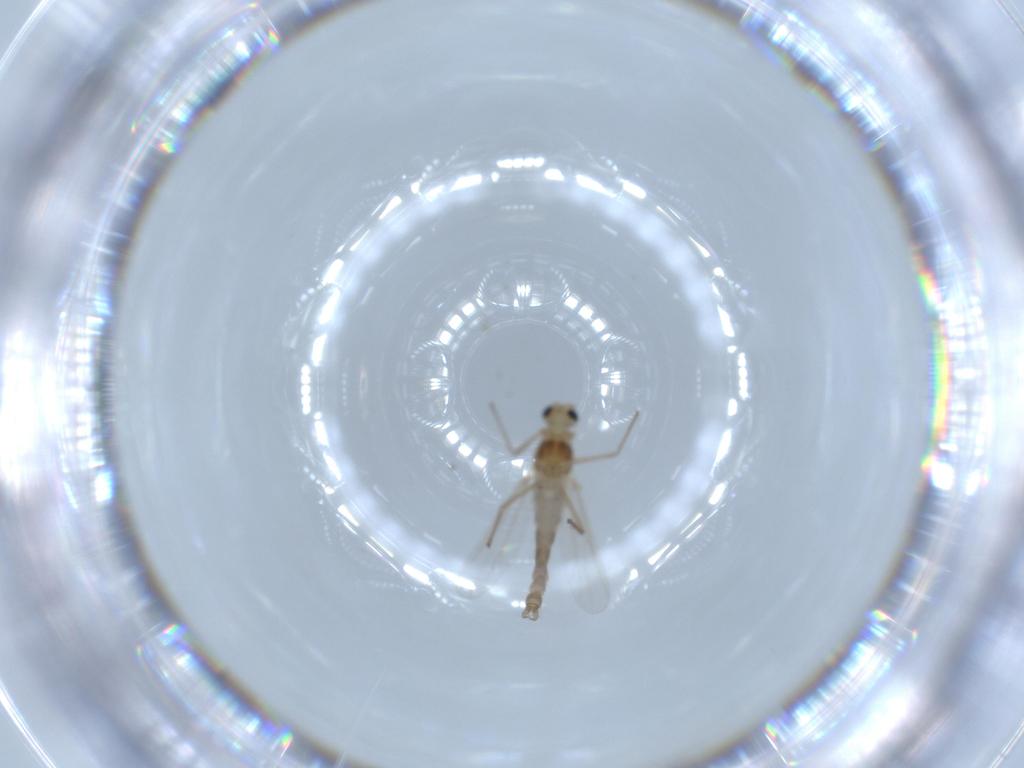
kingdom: Animalia
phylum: Arthropoda
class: Insecta
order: Diptera
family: Chironomidae
